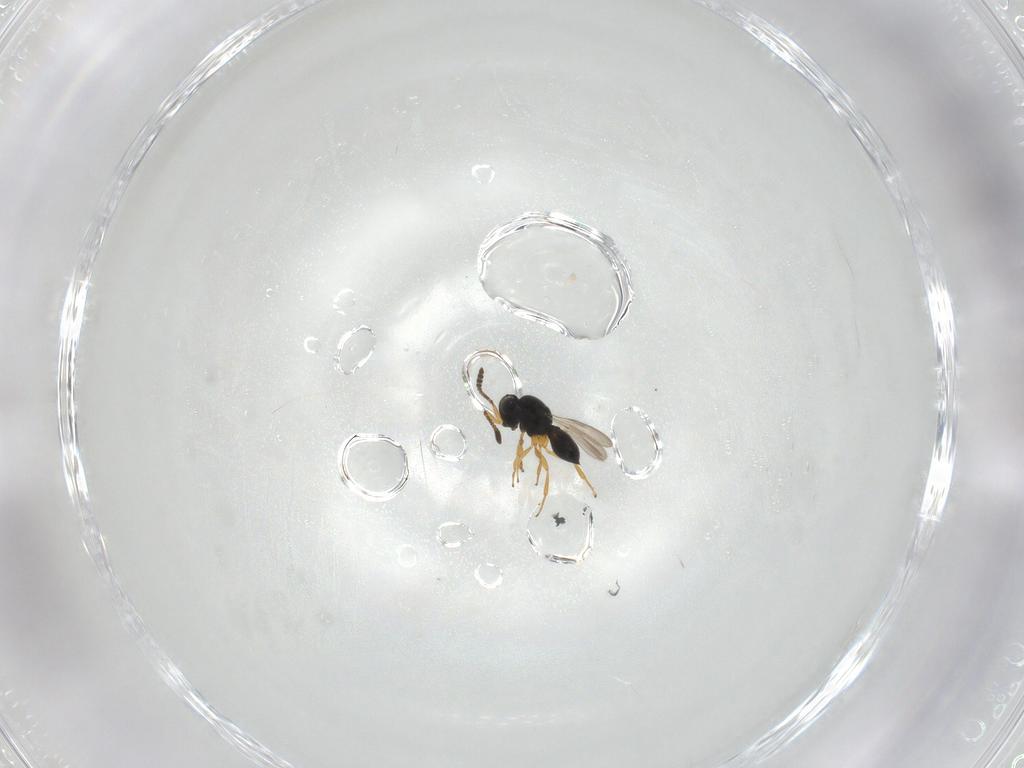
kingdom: Animalia
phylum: Arthropoda
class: Insecta
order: Hymenoptera
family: Scelionidae
